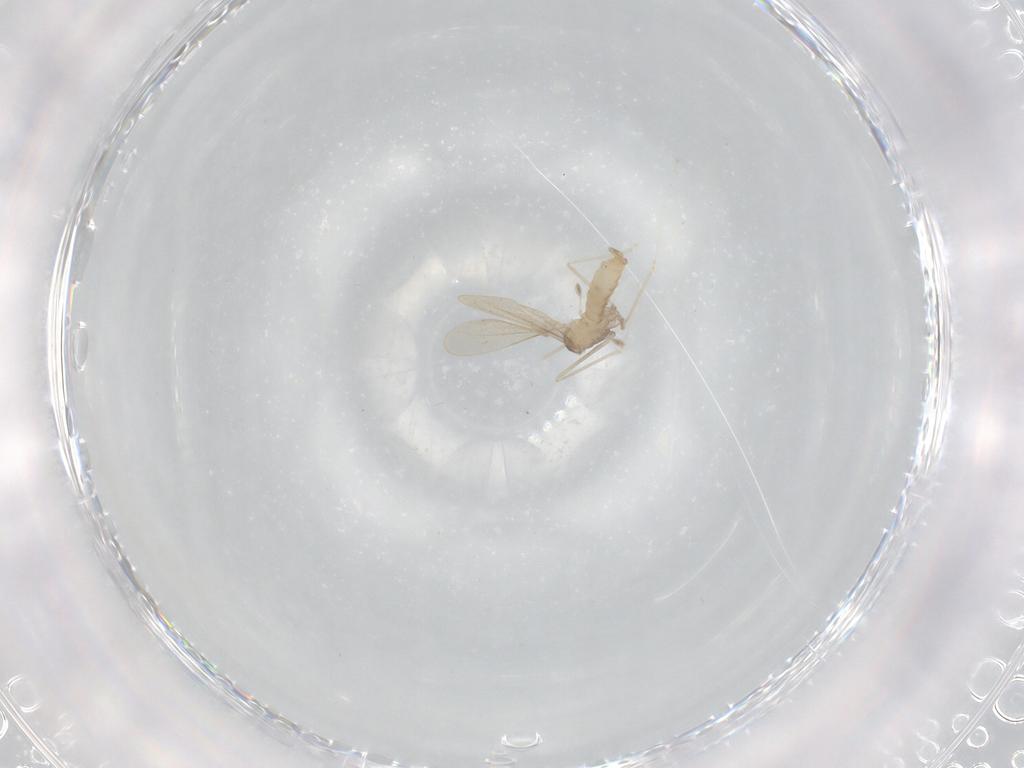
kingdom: Animalia
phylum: Arthropoda
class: Insecta
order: Diptera
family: Cecidomyiidae
